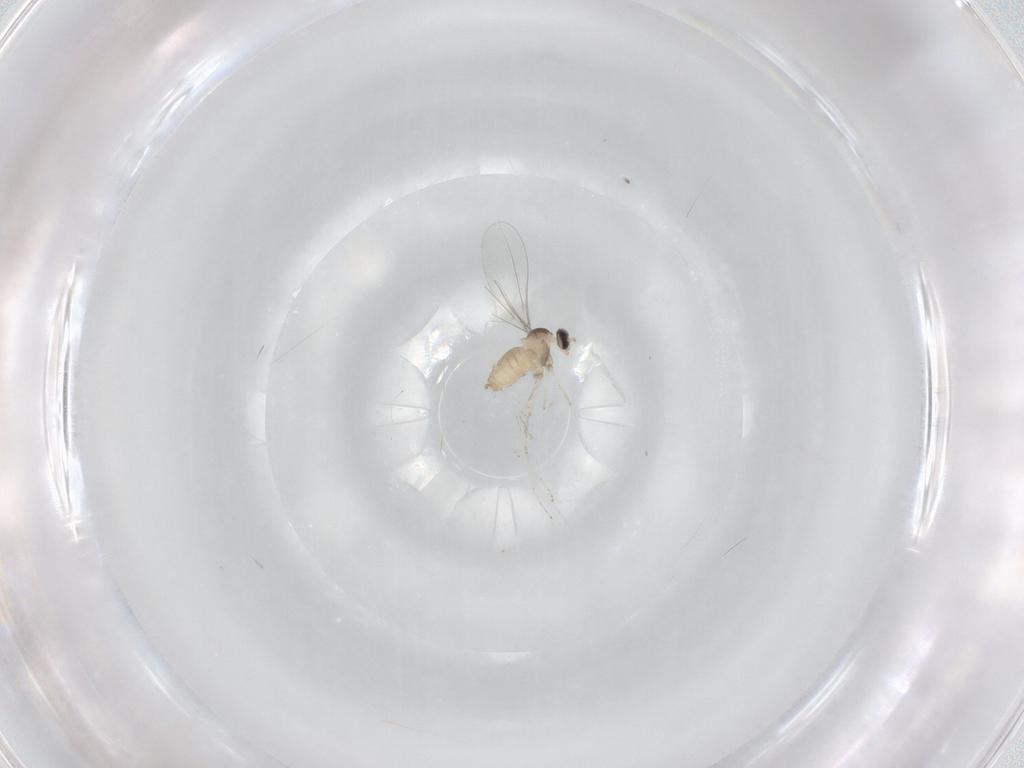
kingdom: Animalia
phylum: Arthropoda
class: Insecta
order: Diptera
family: Cecidomyiidae
